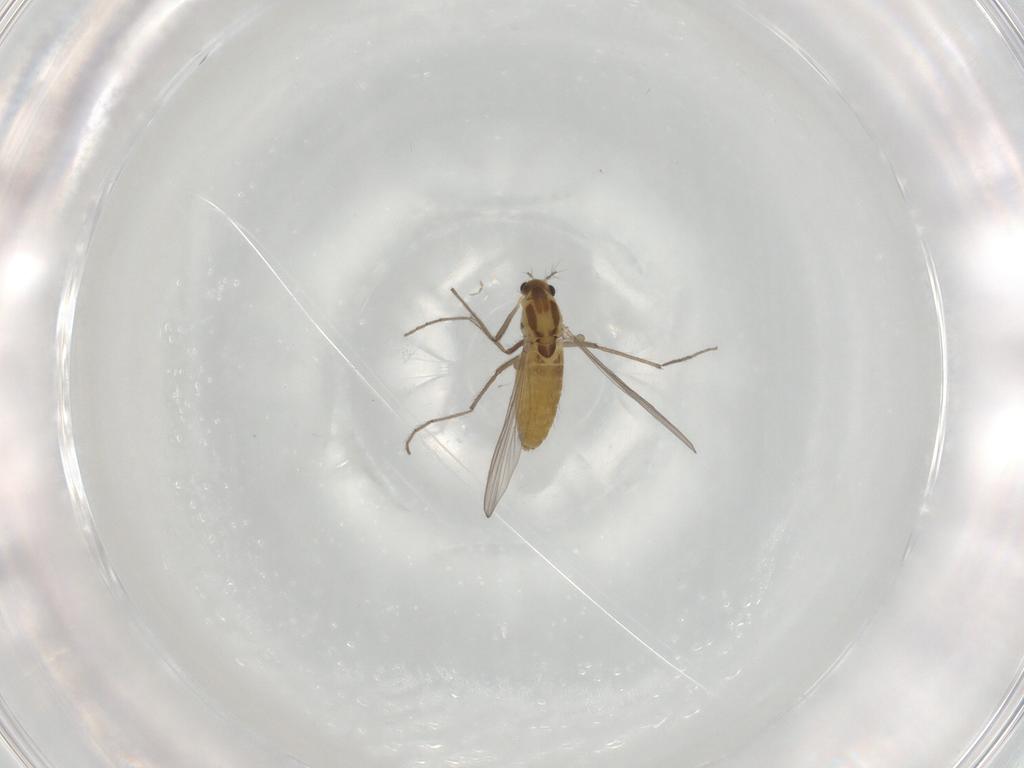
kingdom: Animalia
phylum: Arthropoda
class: Insecta
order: Diptera
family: Chironomidae
